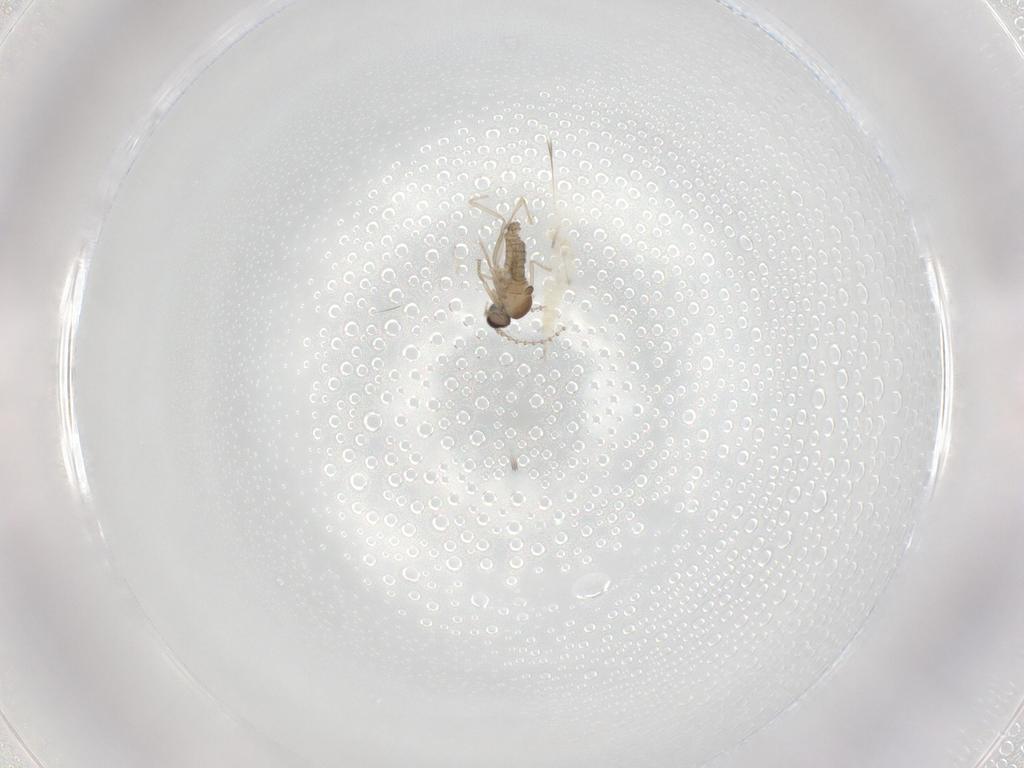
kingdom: Animalia
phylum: Arthropoda
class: Insecta
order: Diptera
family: Cecidomyiidae
